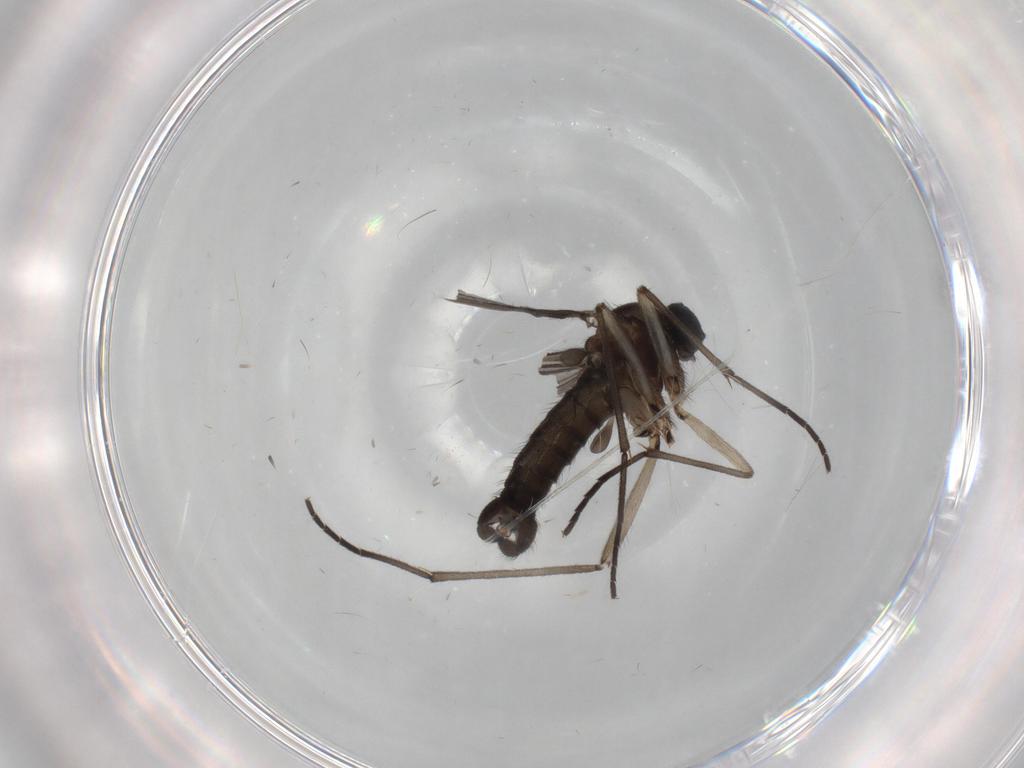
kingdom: Animalia
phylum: Arthropoda
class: Insecta
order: Diptera
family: Sciaridae
